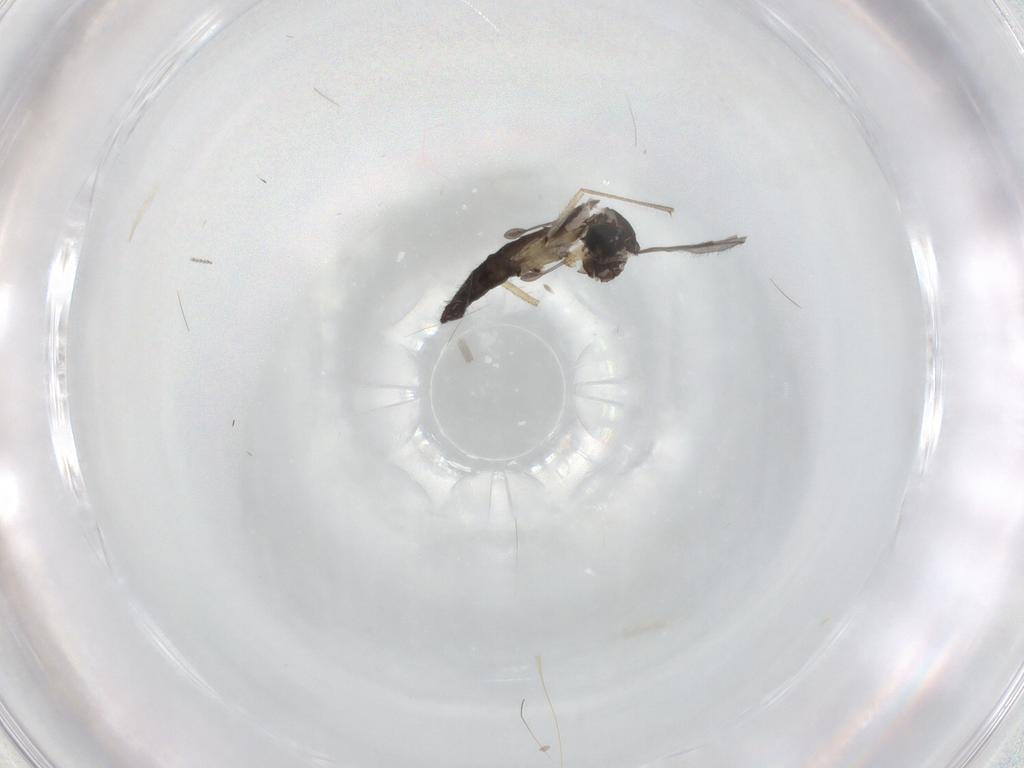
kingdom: Animalia
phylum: Arthropoda
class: Insecta
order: Diptera
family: Sciaridae
